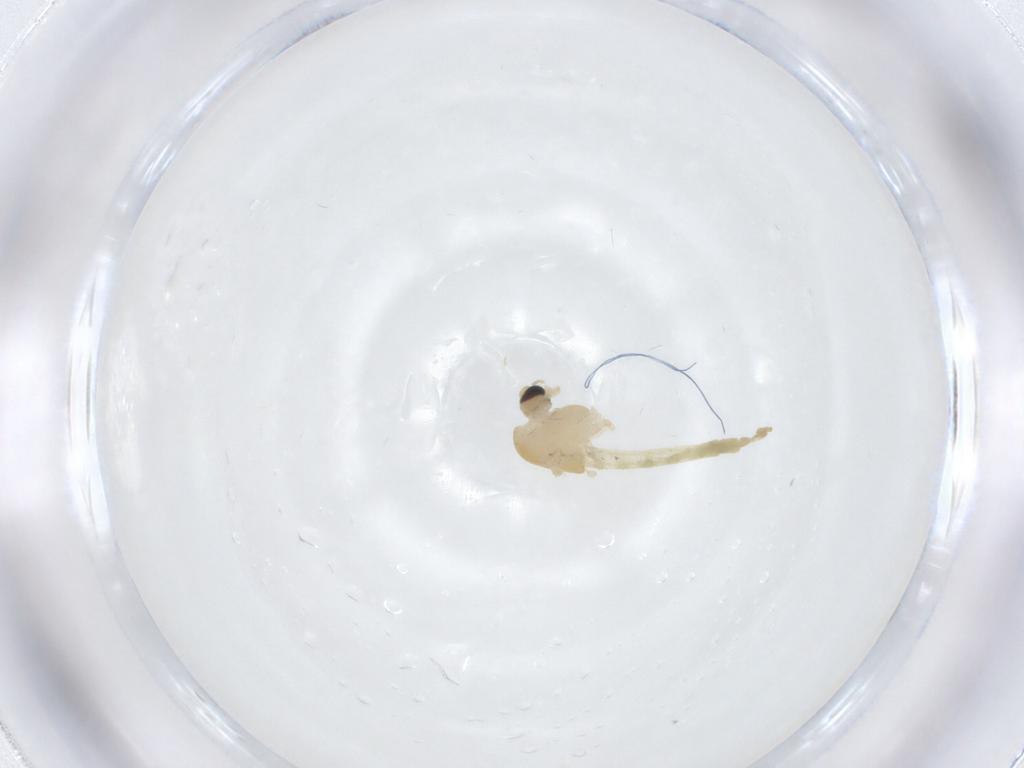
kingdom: Animalia
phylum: Arthropoda
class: Insecta
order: Diptera
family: Chironomidae
